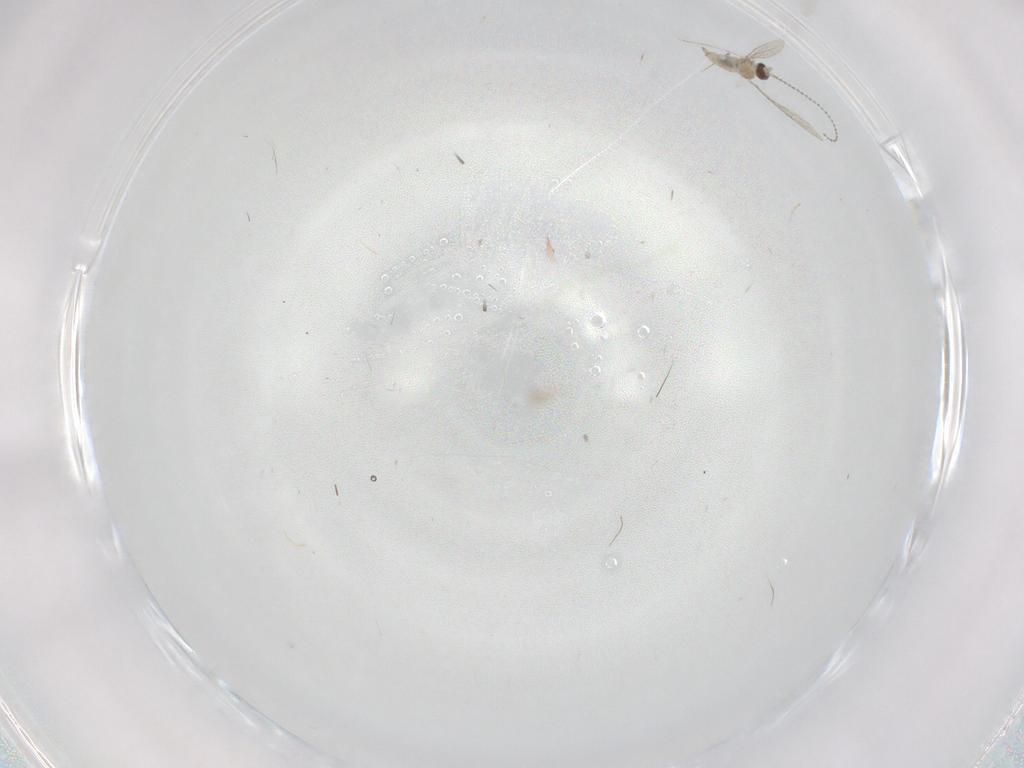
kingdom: Animalia
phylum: Arthropoda
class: Insecta
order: Diptera
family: Cecidomyiidae
